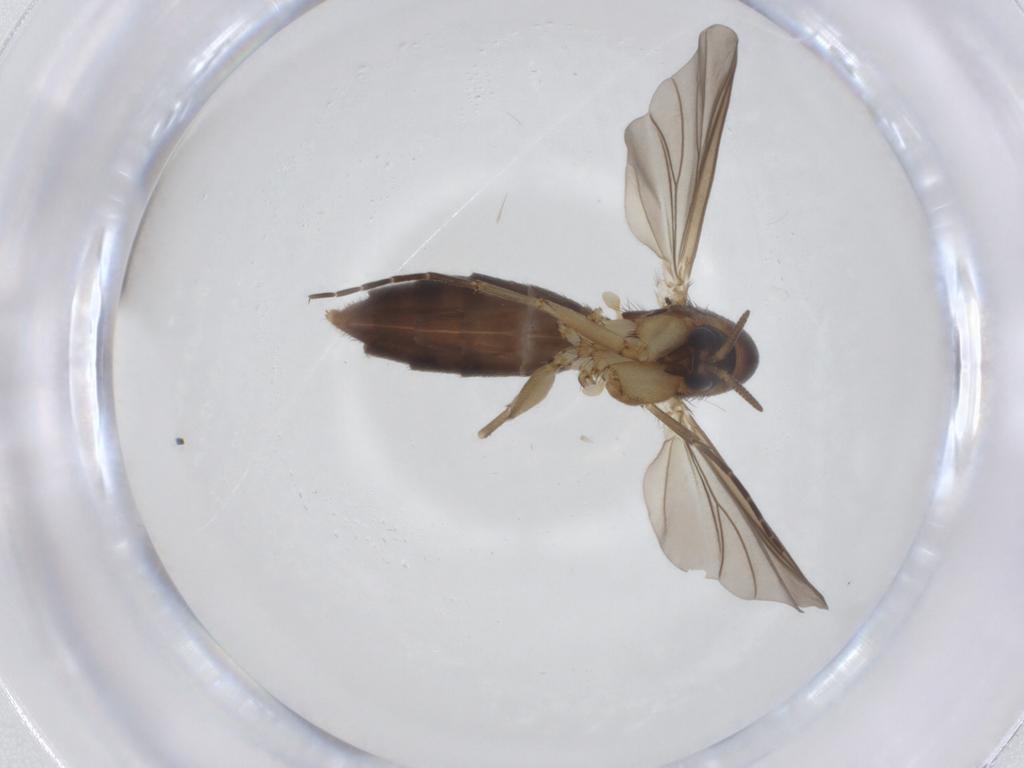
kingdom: Animalia
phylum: Arthropoda
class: Insecta
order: Diptera
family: Mycetophilidae
